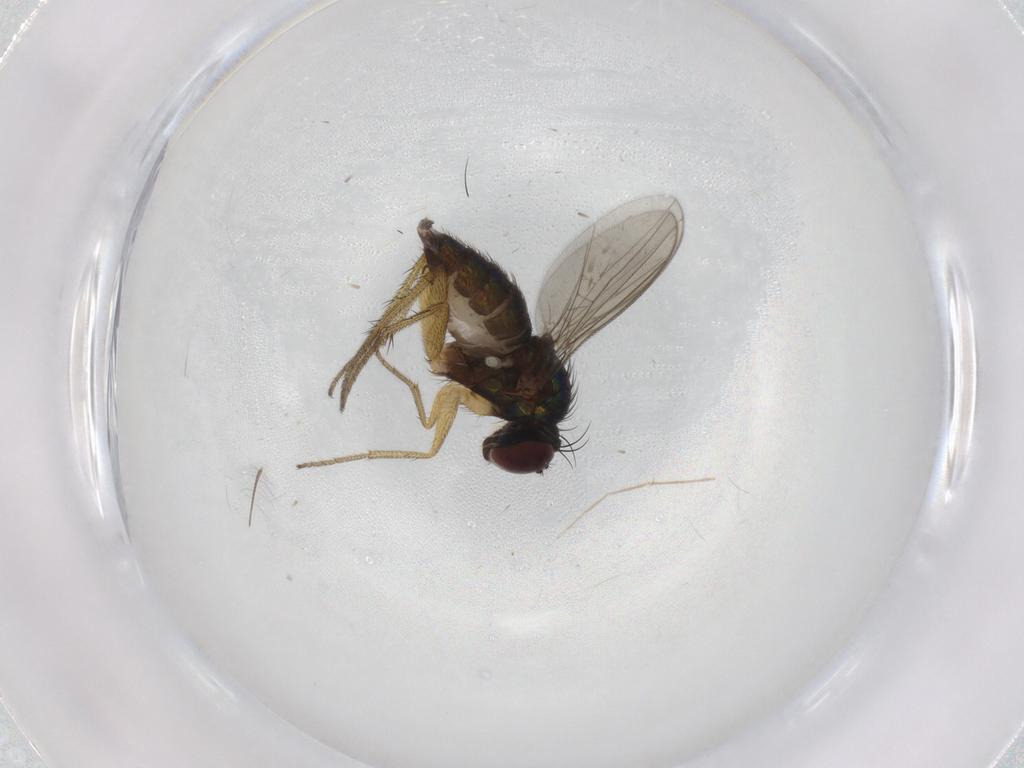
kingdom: Animalia
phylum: Arthropoda
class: Insecta
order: Diptera
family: Dolichopodidae
